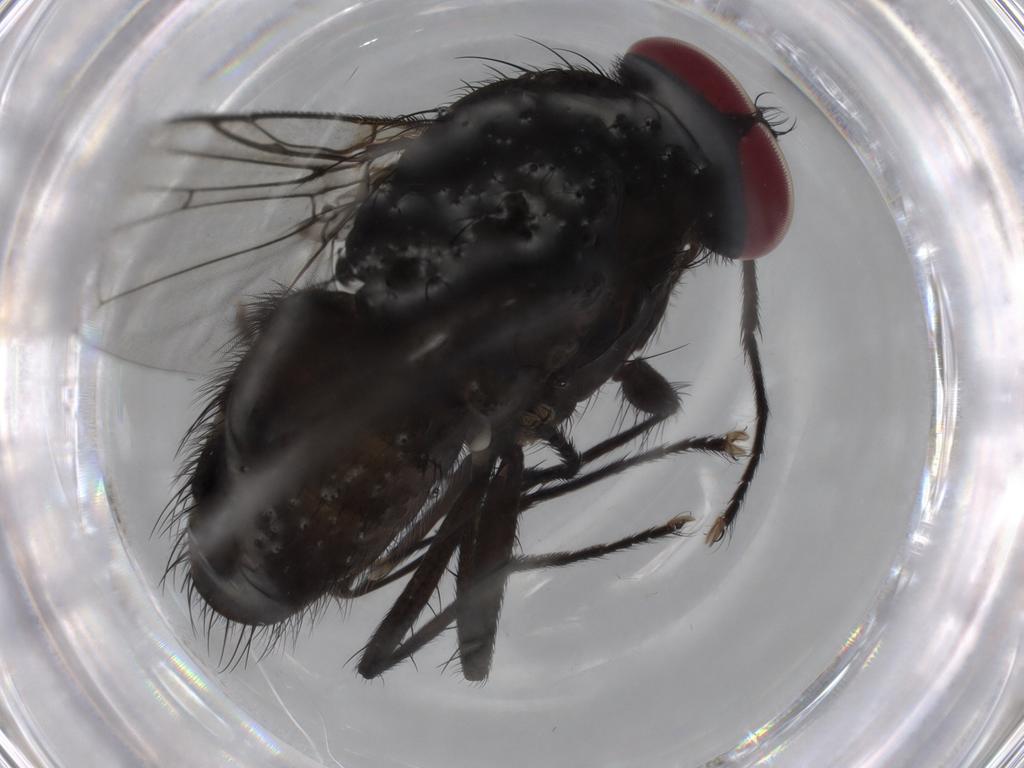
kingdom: Animalia
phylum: Arthropoda
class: Insecta
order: Diptera
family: Muscidae
